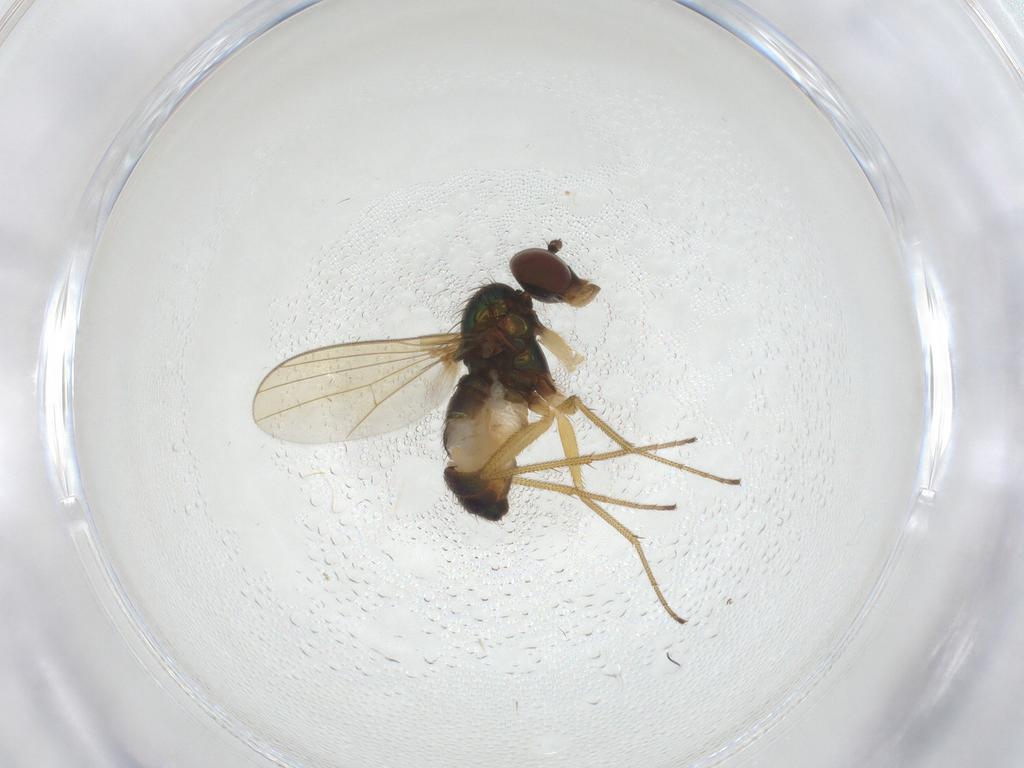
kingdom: Animalia
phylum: Arthropoda
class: Insecta
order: Diptera
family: Dolichopodidae
